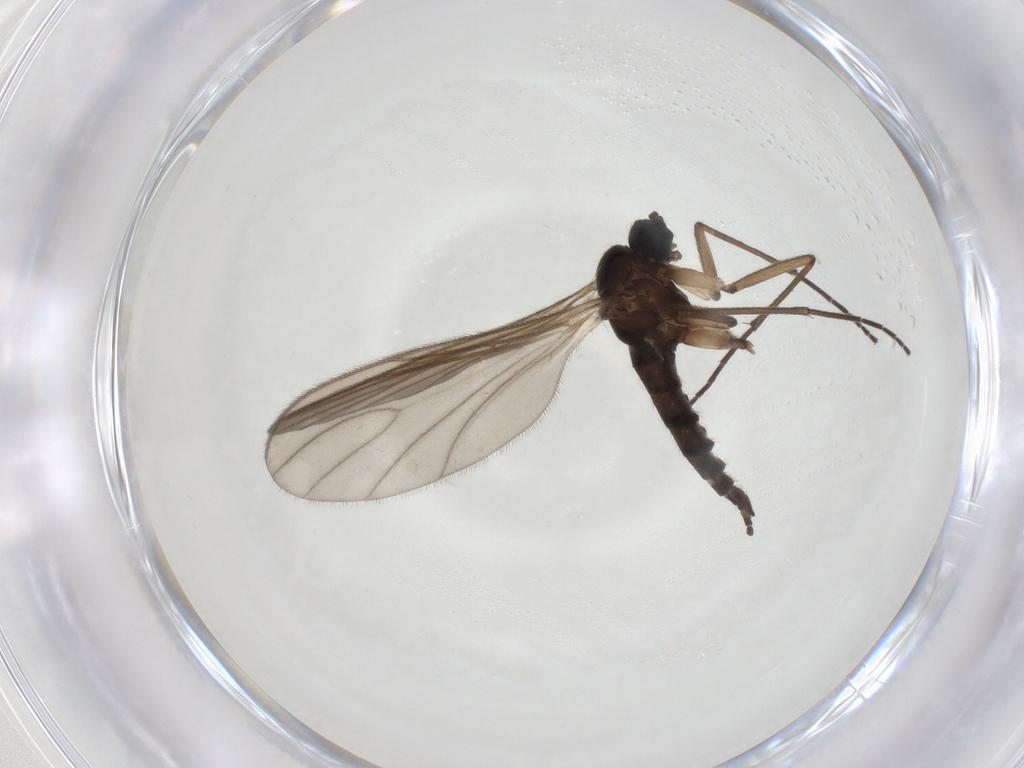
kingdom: Animalia
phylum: Arthropoda
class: Insecta
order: Diptera
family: Sciaridae
